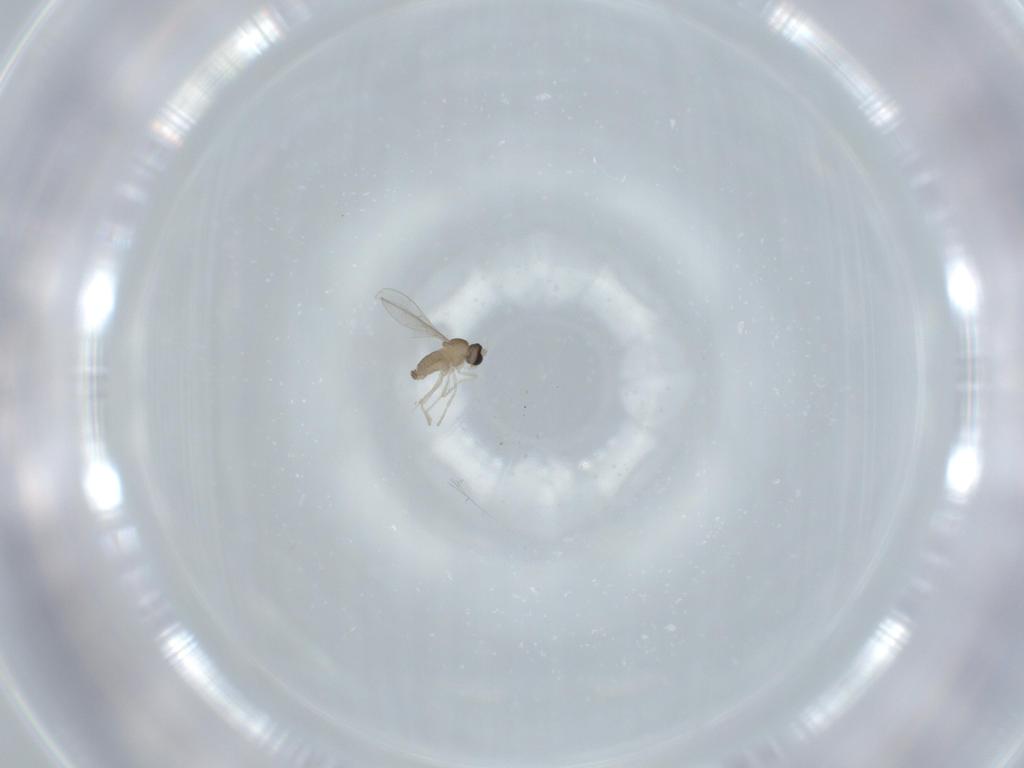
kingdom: Animalia
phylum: Arthropoda
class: Insecta
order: Diptera
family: Cecidomyiidae
